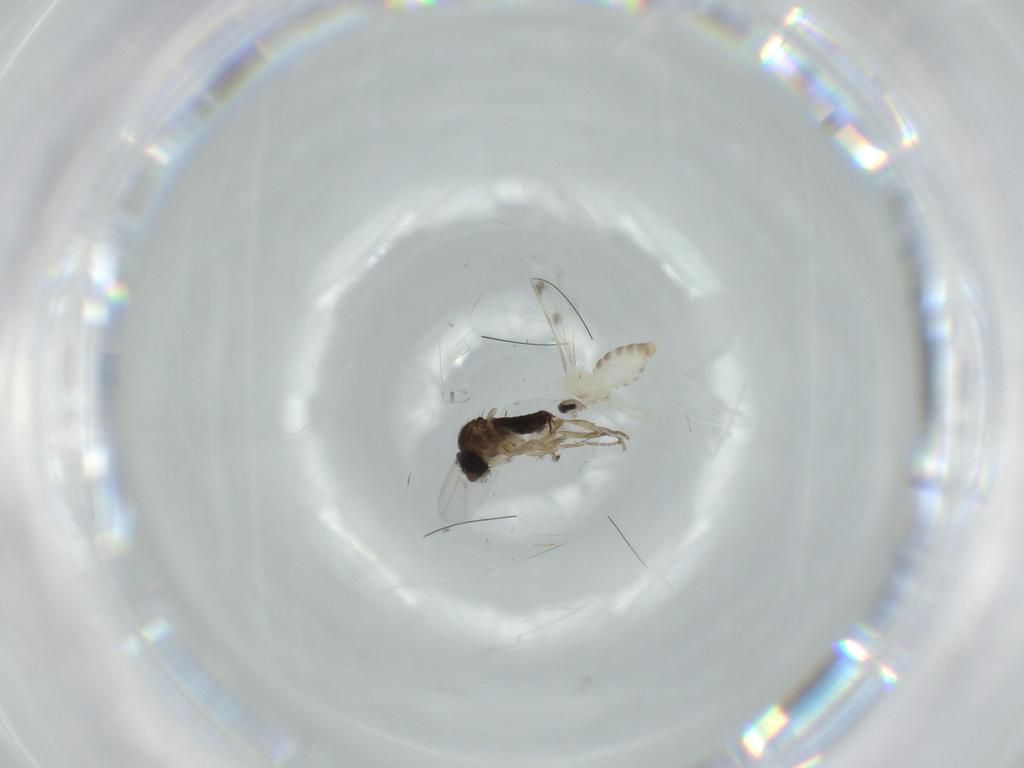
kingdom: Animalia
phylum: Arthropoda
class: Insecta
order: Diptera
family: Cecidomyiidae
